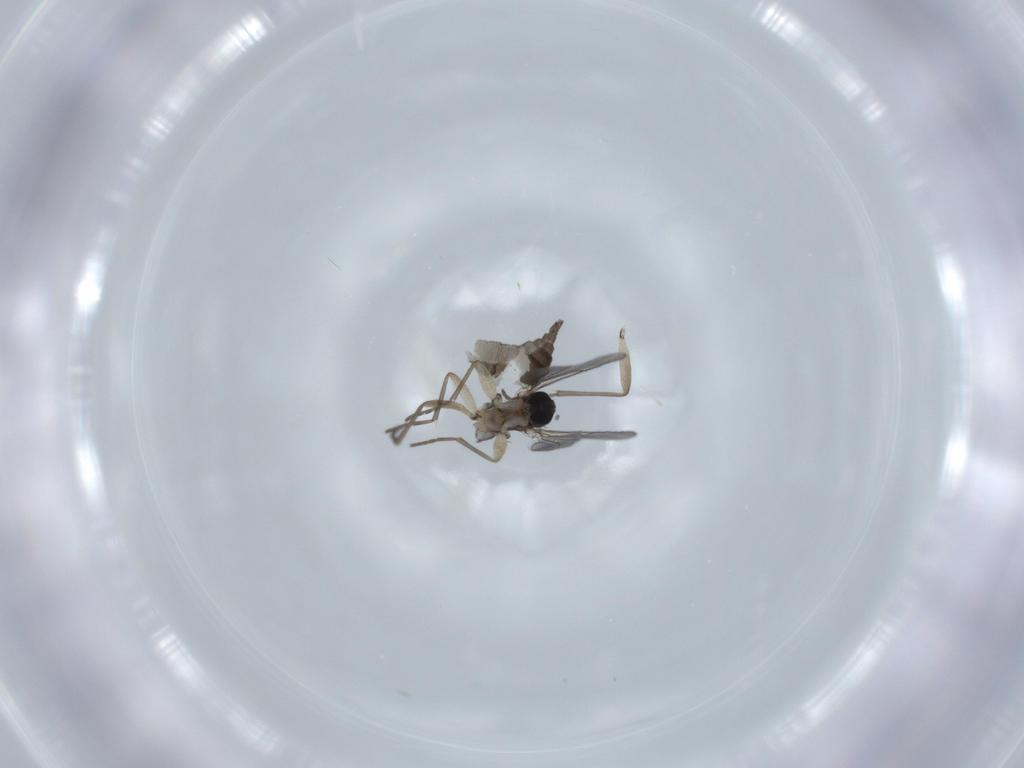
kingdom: Animalia
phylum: Arthropoda
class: Insecta
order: Diptera
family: Sciaridae
